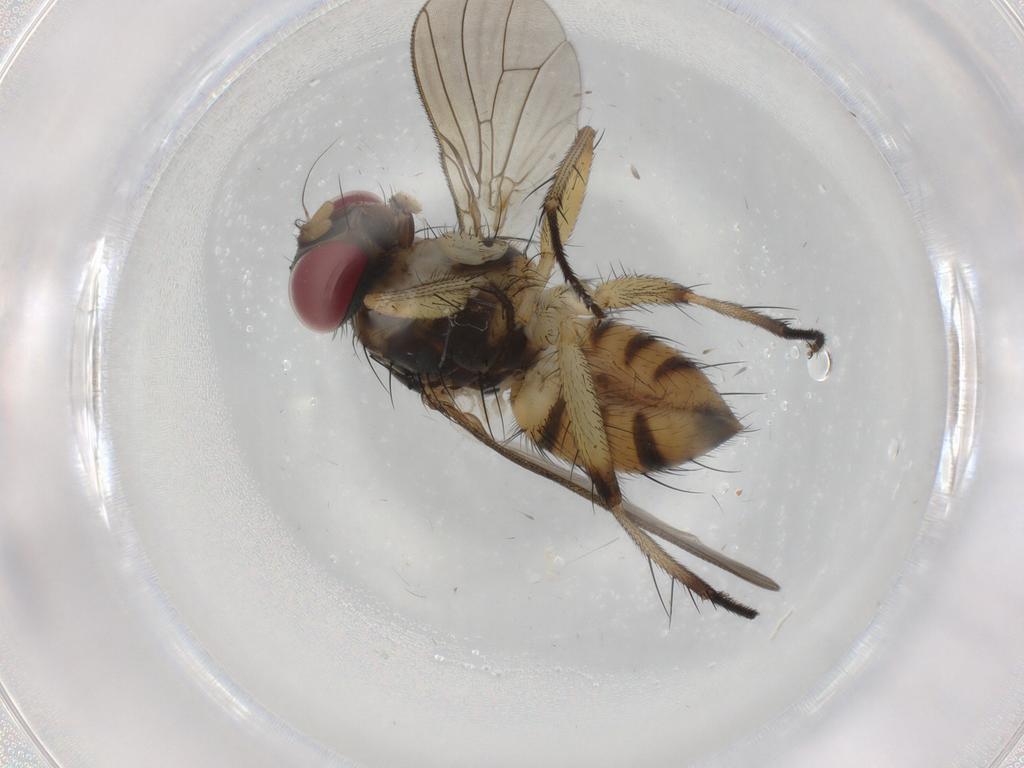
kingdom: Animalia
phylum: Arthropoda
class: Insecta
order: Diptera
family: Cecidomyiidae
